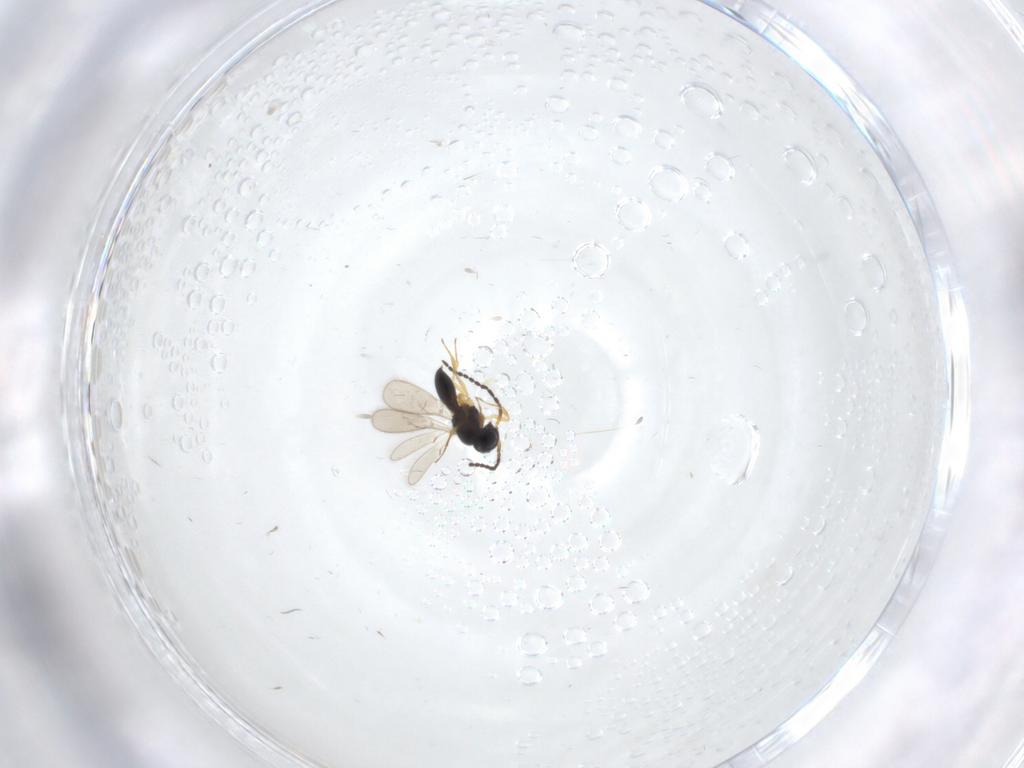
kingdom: Animalia
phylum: Arthropoda
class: Insecta
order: Hymenoptera
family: Scelionidae
